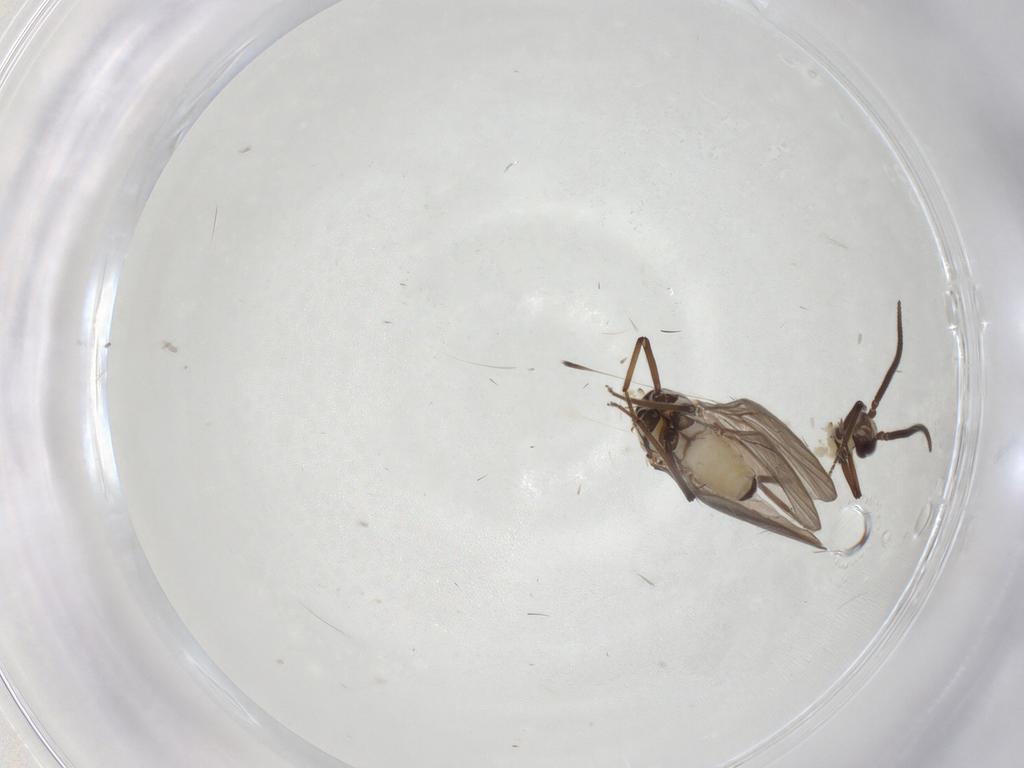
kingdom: Animalia
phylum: Arthropoda
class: Insecta
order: Neuroptera
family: Coniopterygidae
